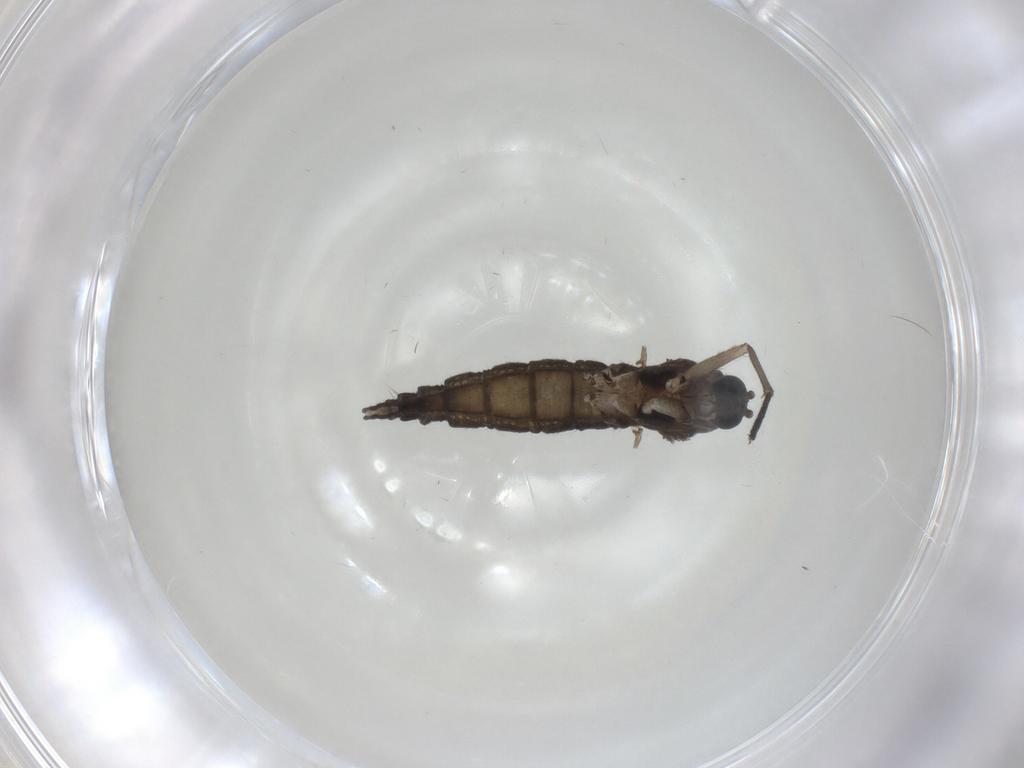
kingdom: Animalia
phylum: Arthropoda
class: Insecta
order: Diptera
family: Sciaridae
